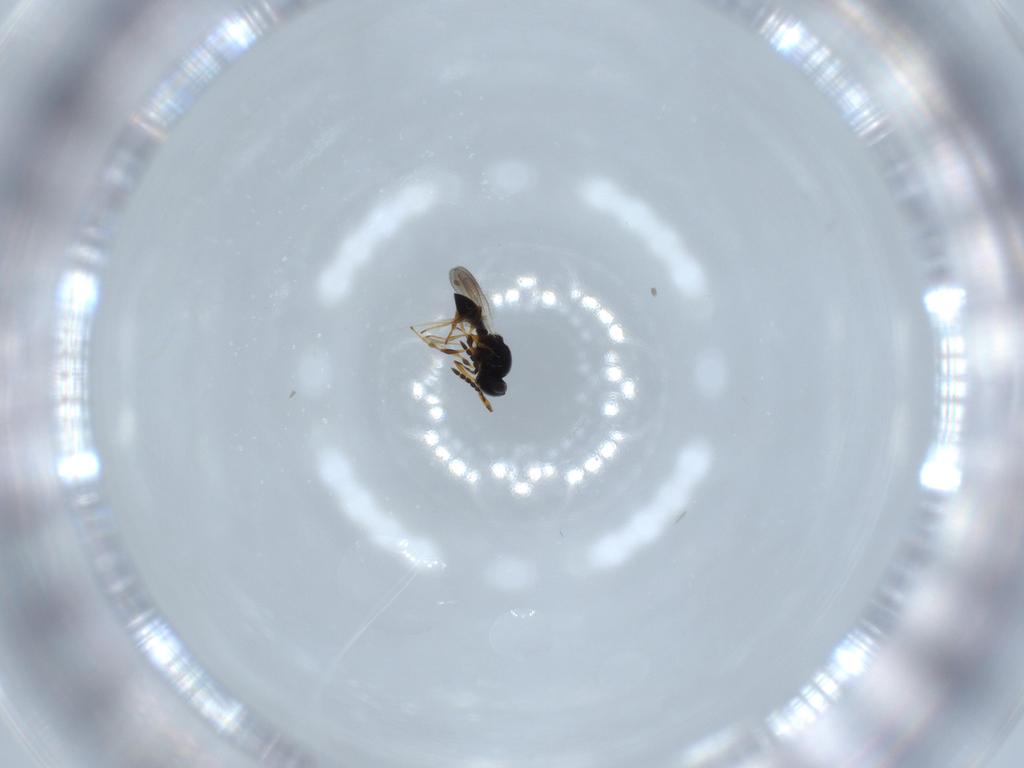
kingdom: Animalia
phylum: Arthropoda
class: Insecta
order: Hymenoptera
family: Platygastridae
